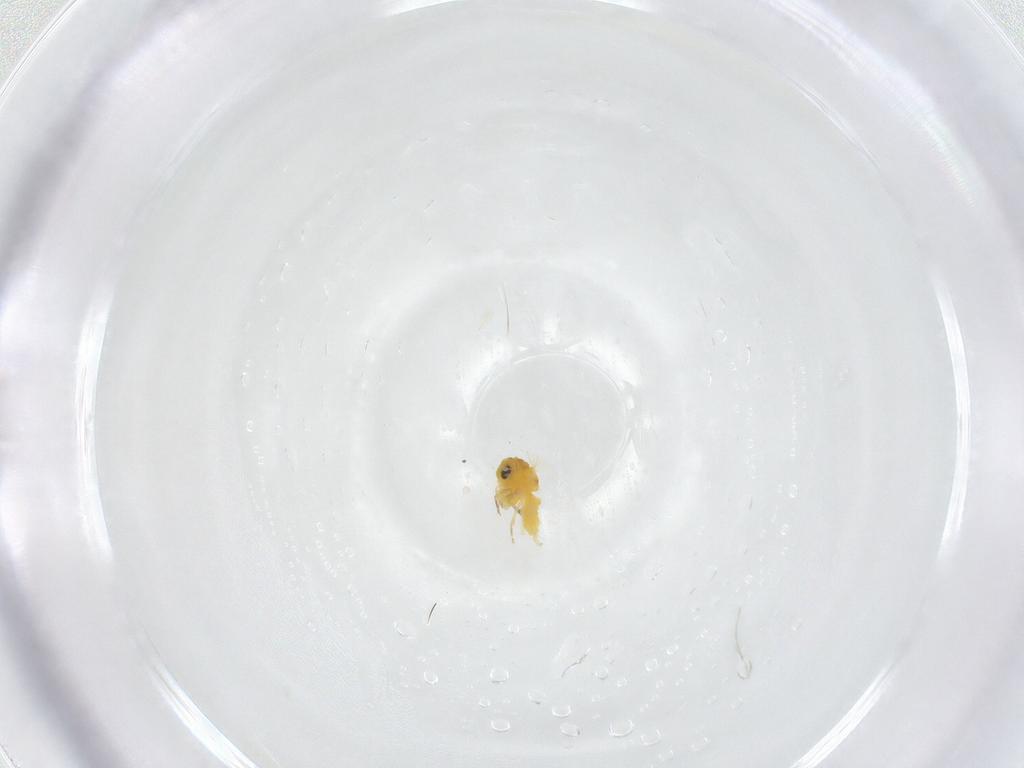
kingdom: Animalia
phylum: Arthropoda
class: Insecta
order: Hemiptera
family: Aleyrodidae
